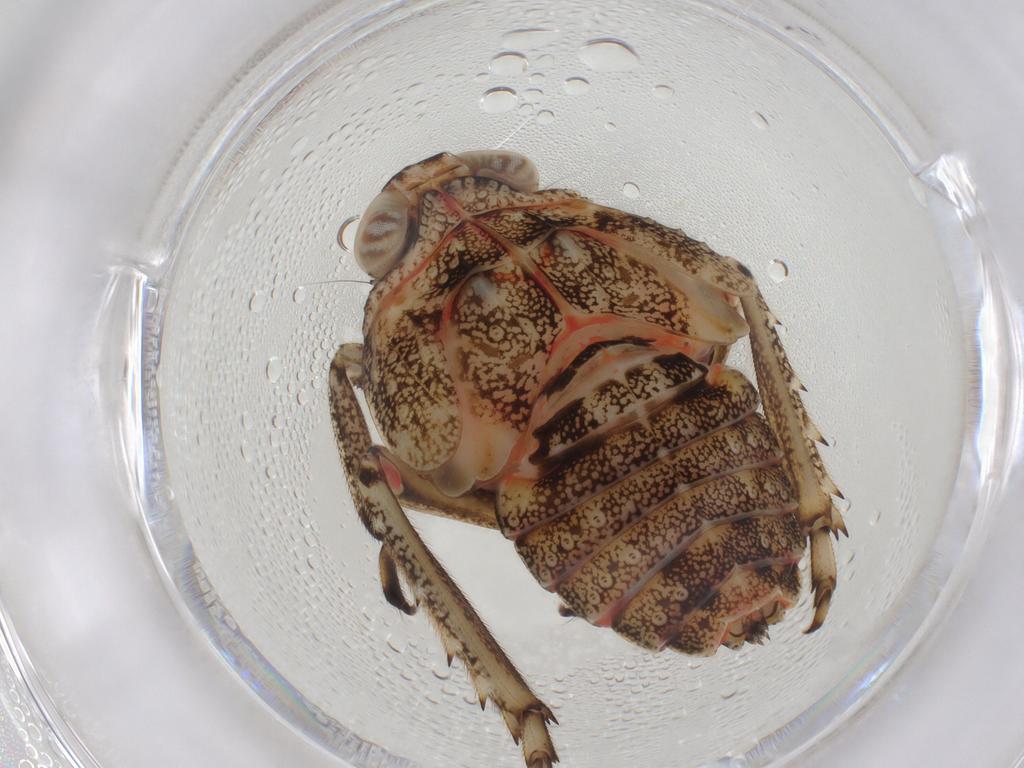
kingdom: Animalia
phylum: Arthropoda
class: Insecta
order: Hemiptera
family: Issidae
